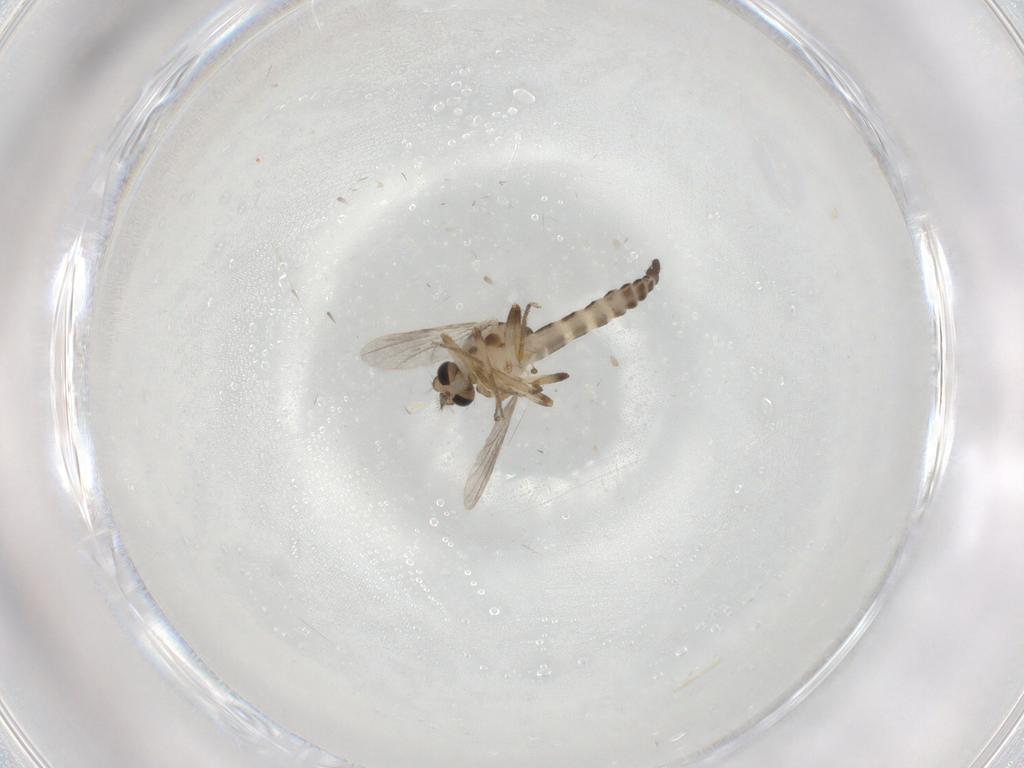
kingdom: Animalia
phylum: Arthropoda
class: Insecta
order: Diptera
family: Ceratopogonidae
